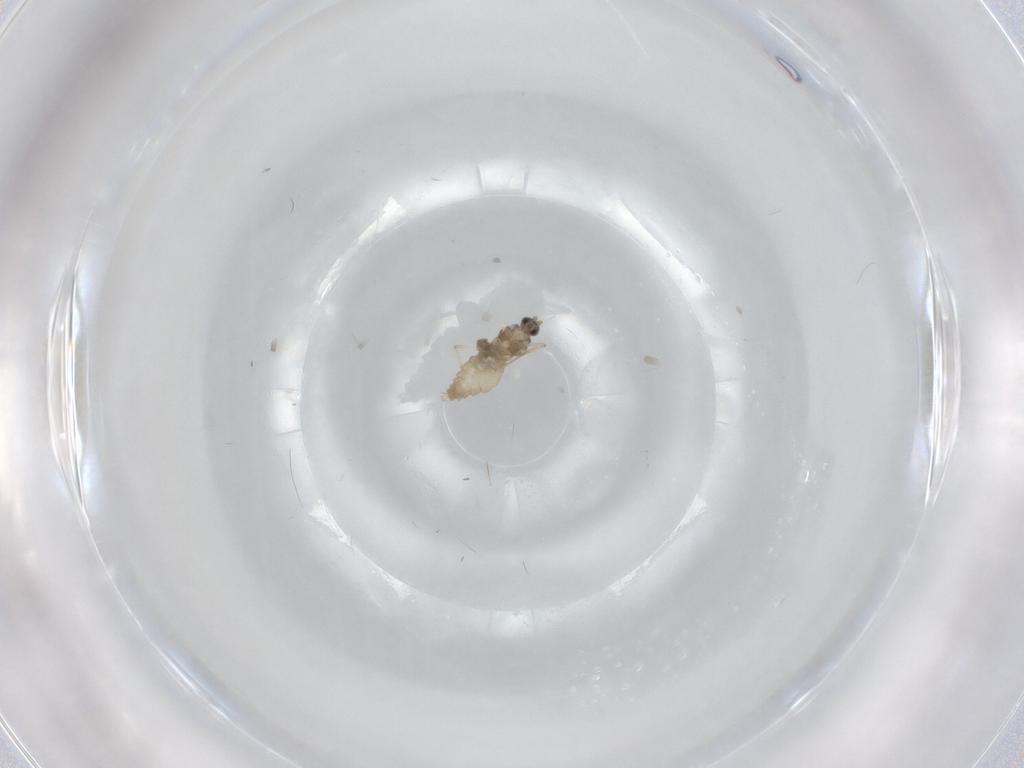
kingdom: Animalia
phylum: Arthropoda
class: Insecta
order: Diptera
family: Cecidomyiidae
